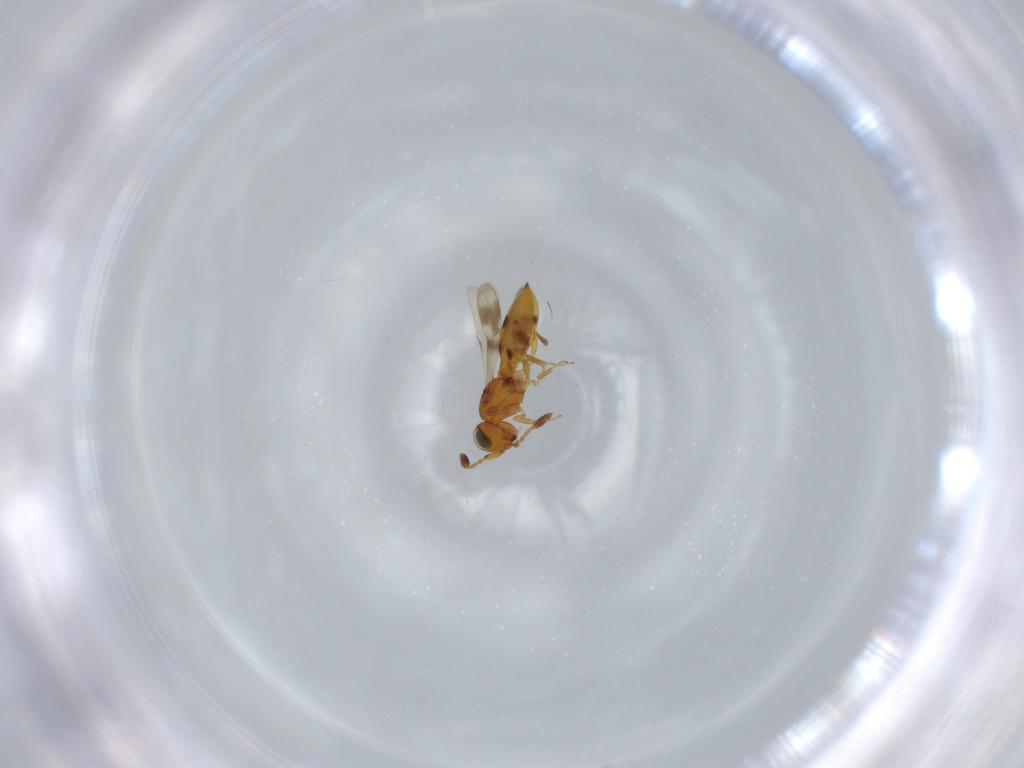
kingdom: Animalia
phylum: Arthropoda
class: Insecta
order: Hymenoptera
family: Scelionidae
